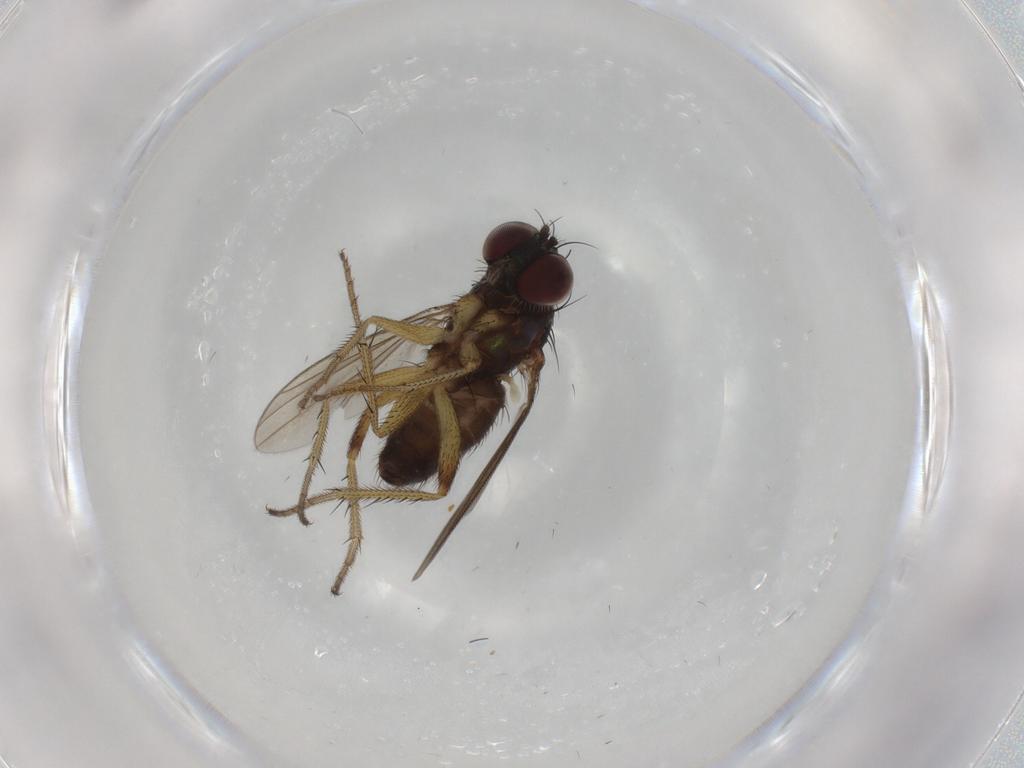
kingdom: Animalia
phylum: Arthropoda
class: Insecta
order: Diptera
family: Dolichopodidae
